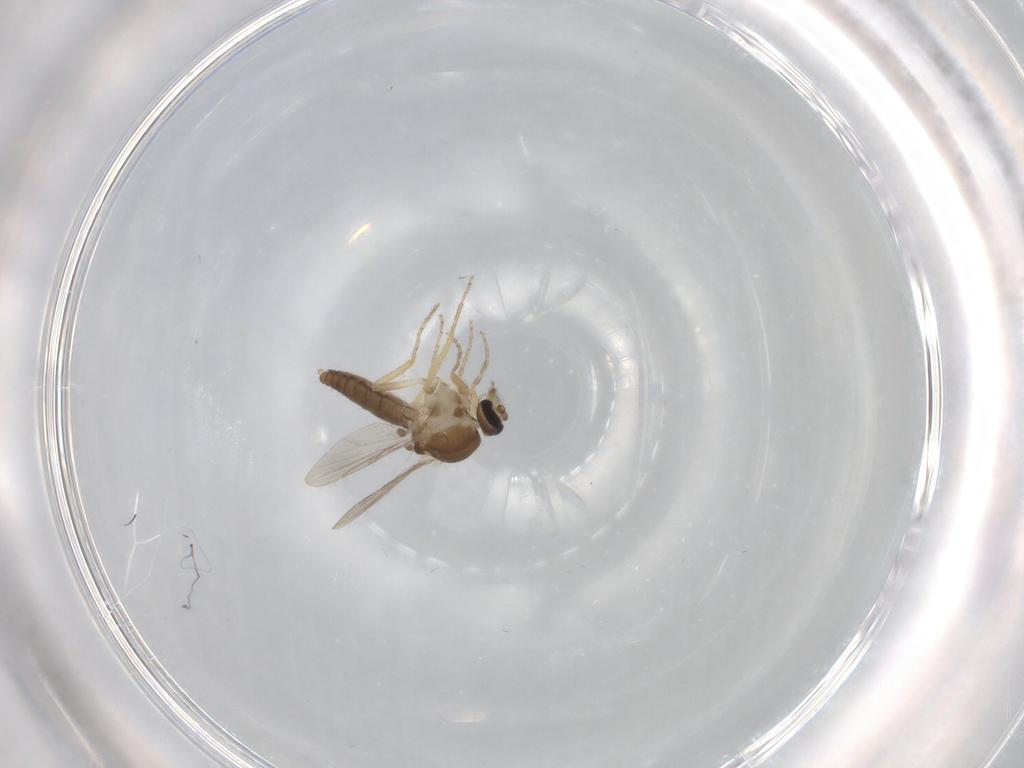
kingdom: Animalia
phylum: Arthropoda
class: Insecta
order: Diptera
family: Ceratopogonidae
